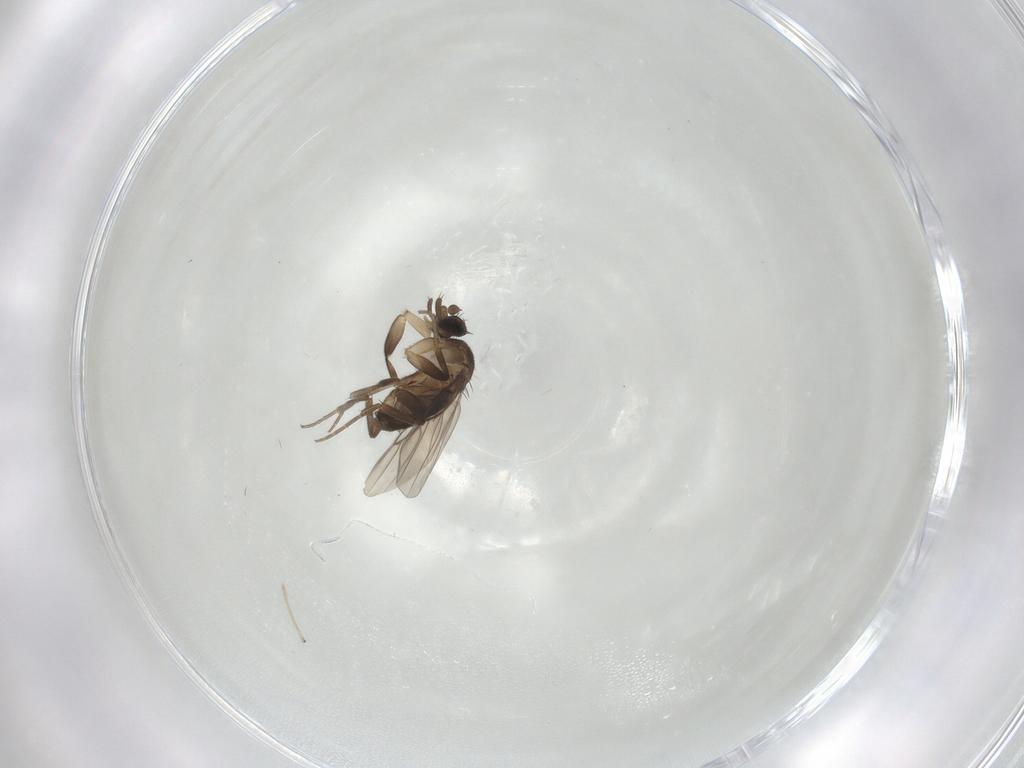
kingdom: Animalia
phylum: Arthropoda
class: Insecta
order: Diptera
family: Phoridae
